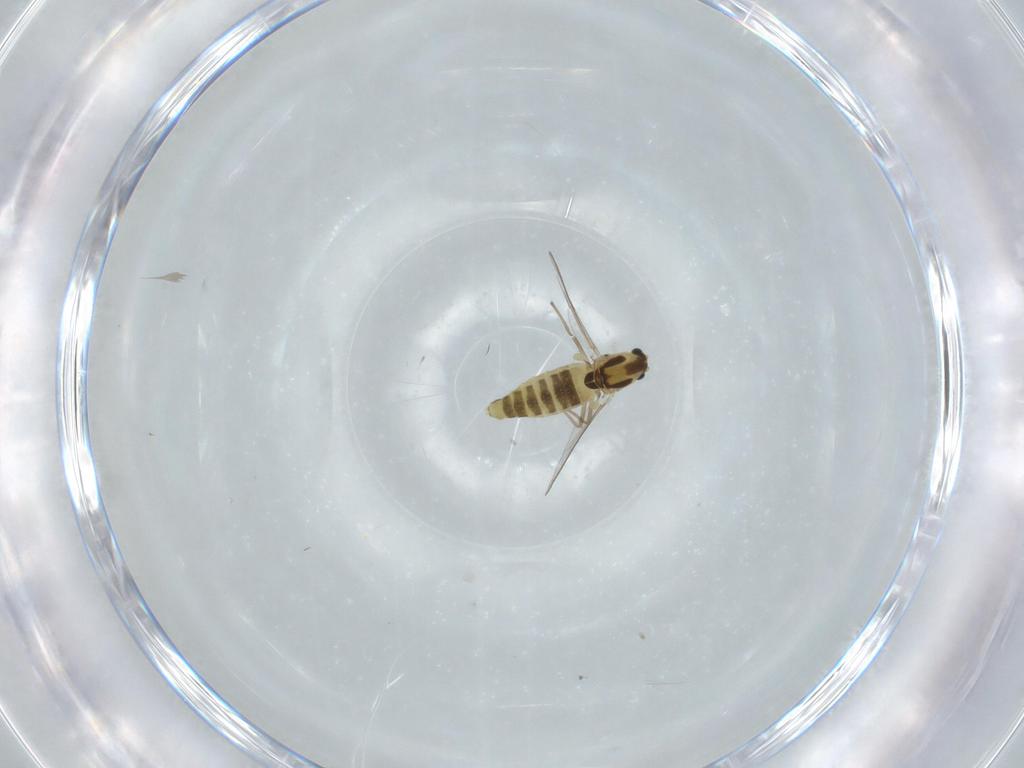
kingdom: Animalia
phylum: Arthropoda
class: Insecta
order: Diptera
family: Chironomidae
